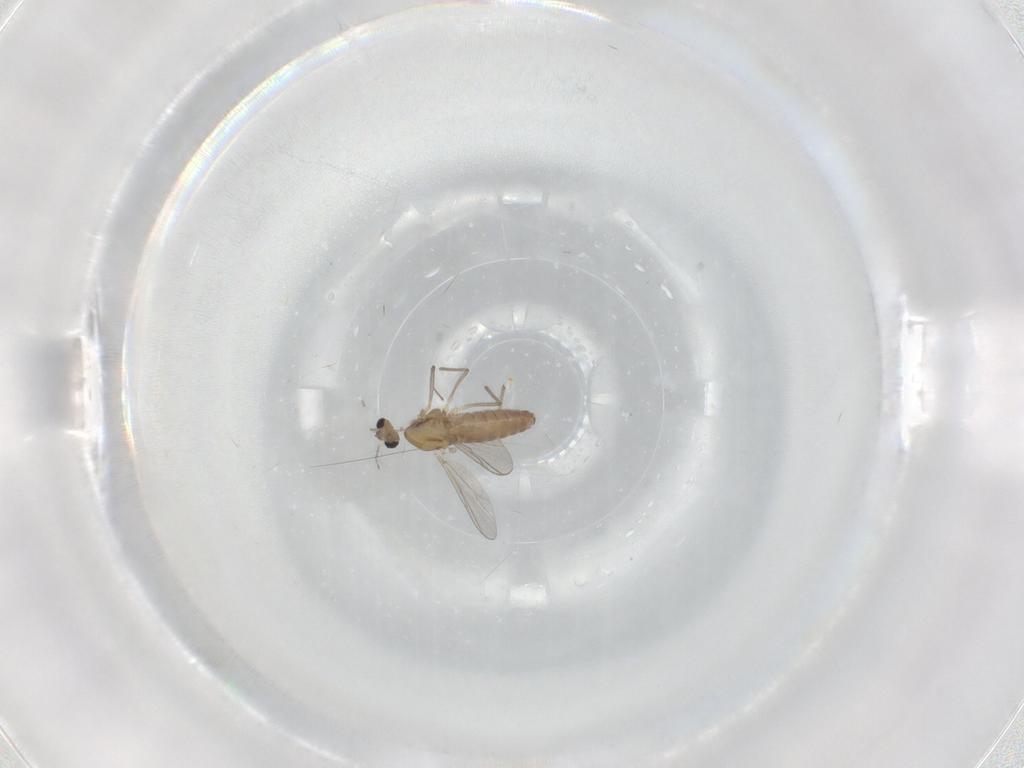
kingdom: Animalia
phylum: Arthropoda
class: Insecta
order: Diptera
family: Chironomidae
